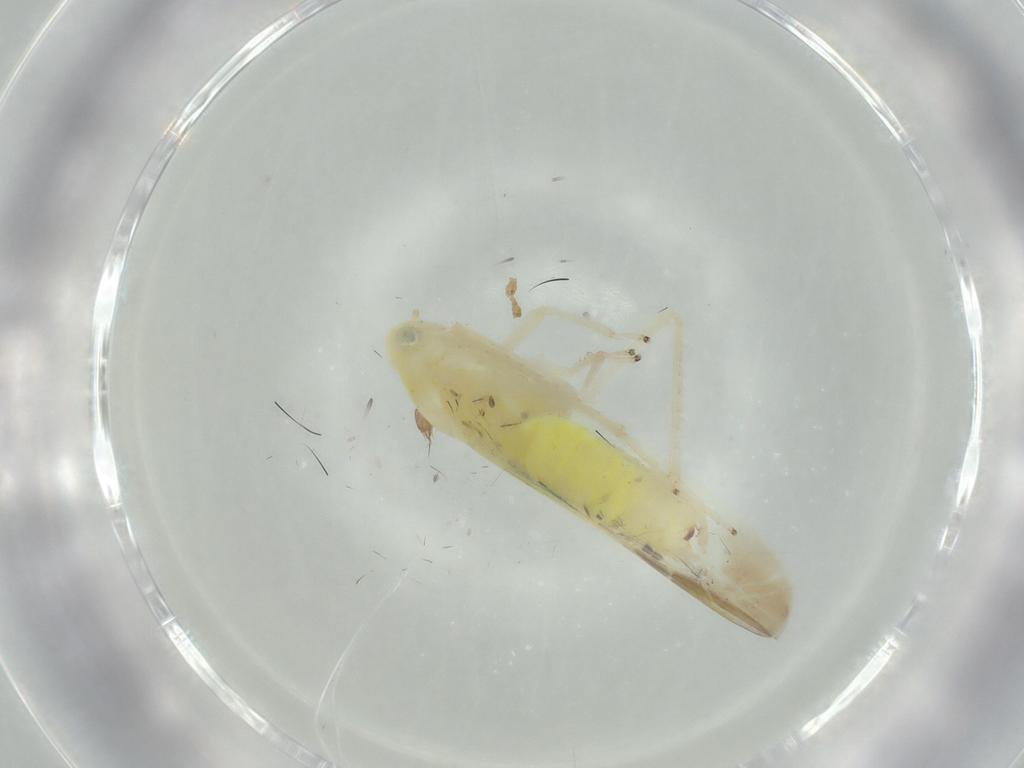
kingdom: Animalia
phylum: Arthropoda
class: Insecta
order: Hemiptera
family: Cicadellidae
